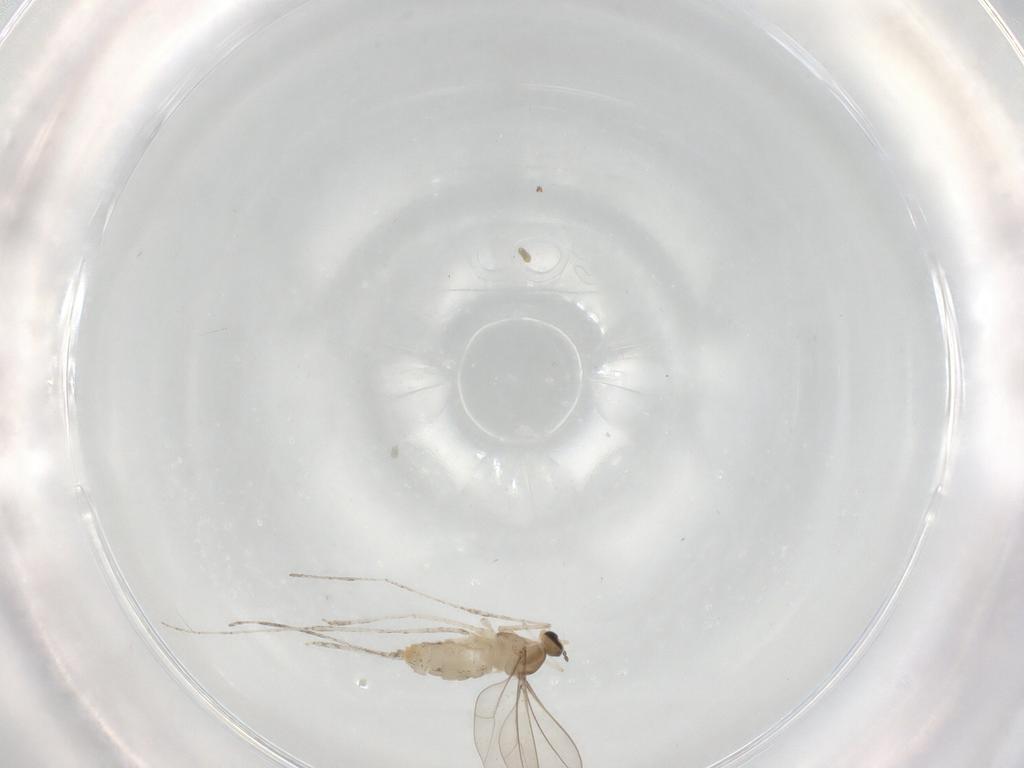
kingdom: Animalia
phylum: Arthropoda
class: Insecta
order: Diptera
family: Cecidomyiidae
